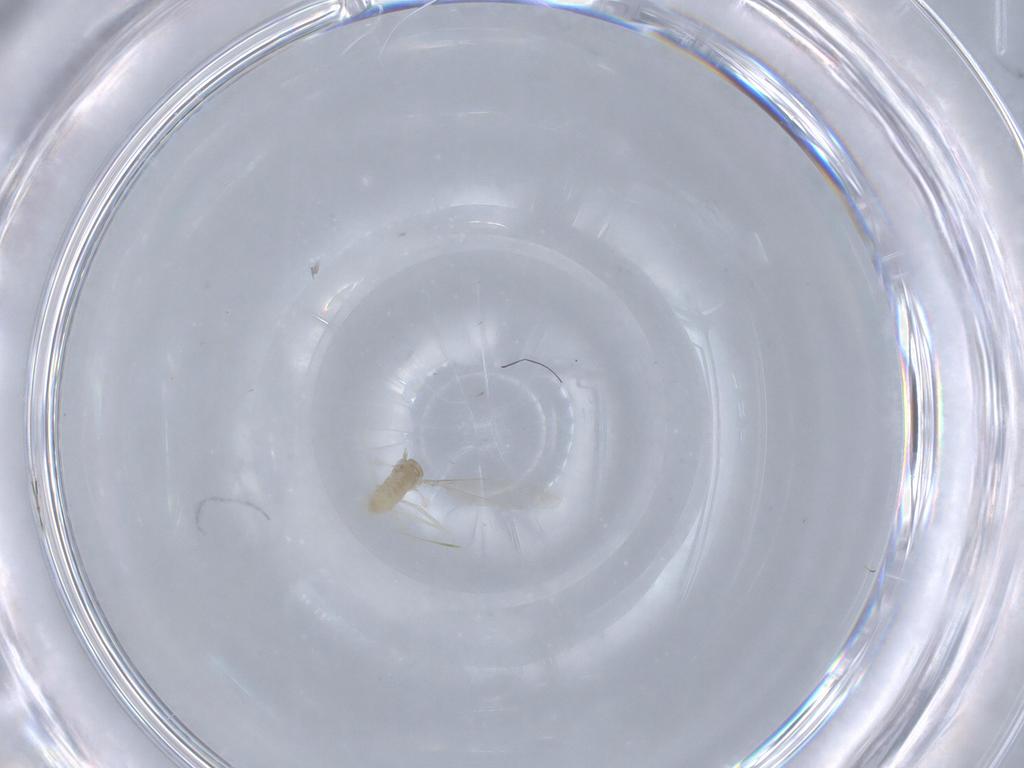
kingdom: Animalia
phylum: Arthropoda
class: Insecta
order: Diptera
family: Cecidomyiidae
